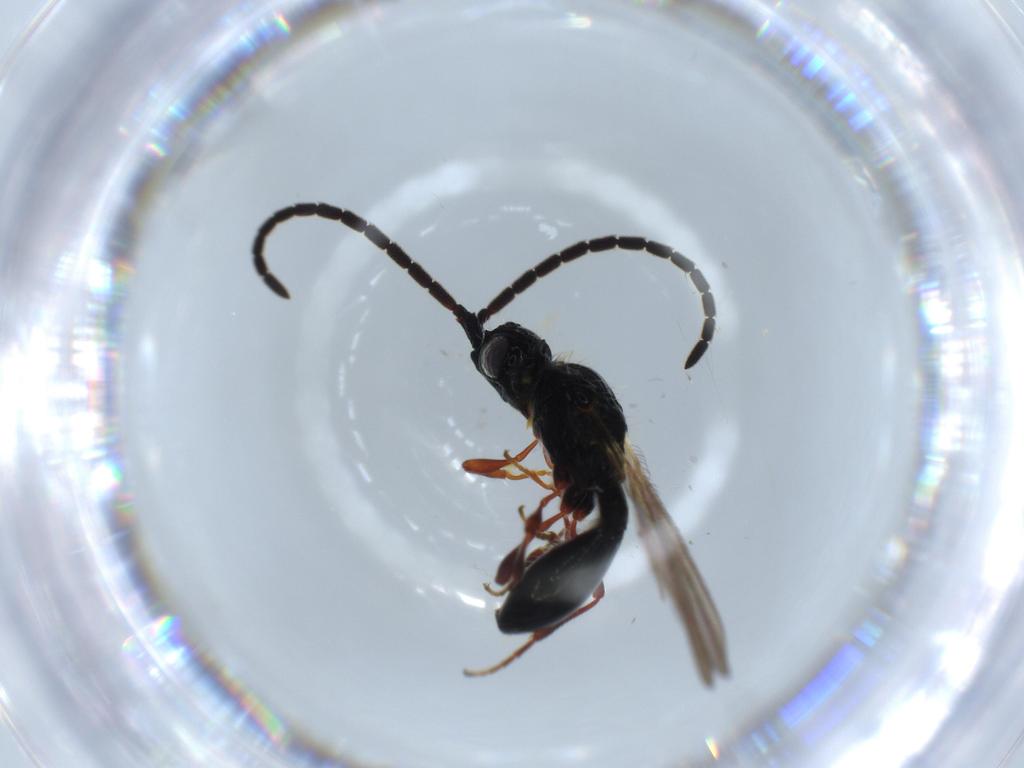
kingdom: Animalia
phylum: Arthropoda
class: Insecta
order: Hymenoptera
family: Diapriidae
